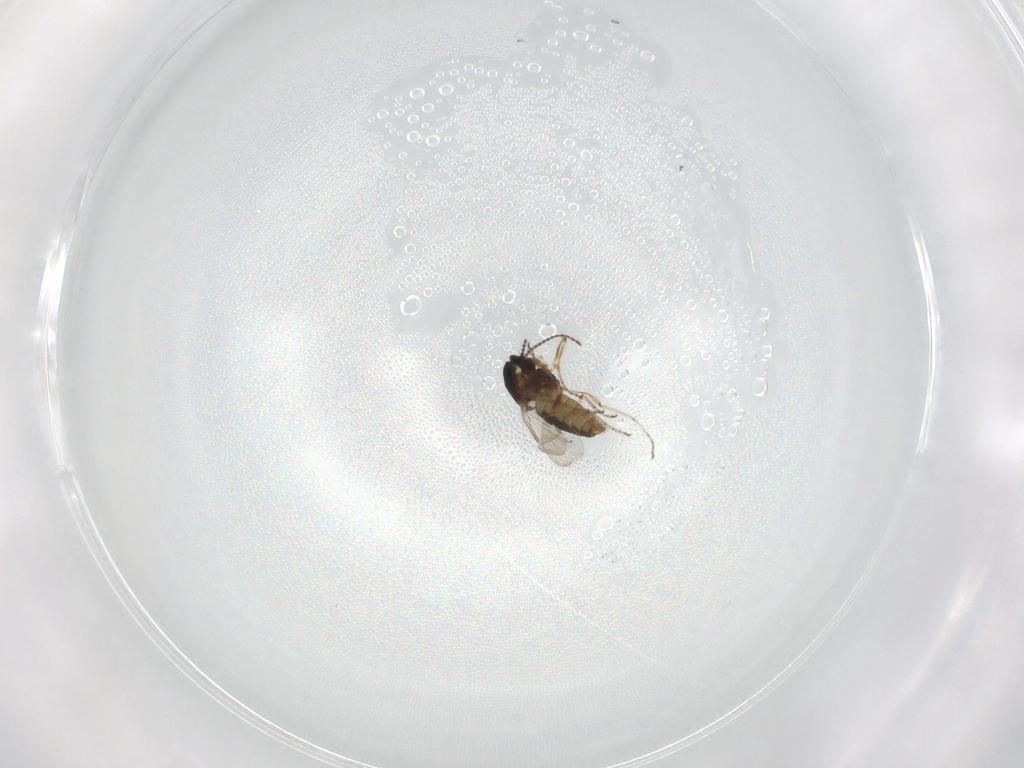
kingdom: Animalia
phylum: Arthropoda
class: Insecta
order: Diptera
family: Ceratopogonidae
